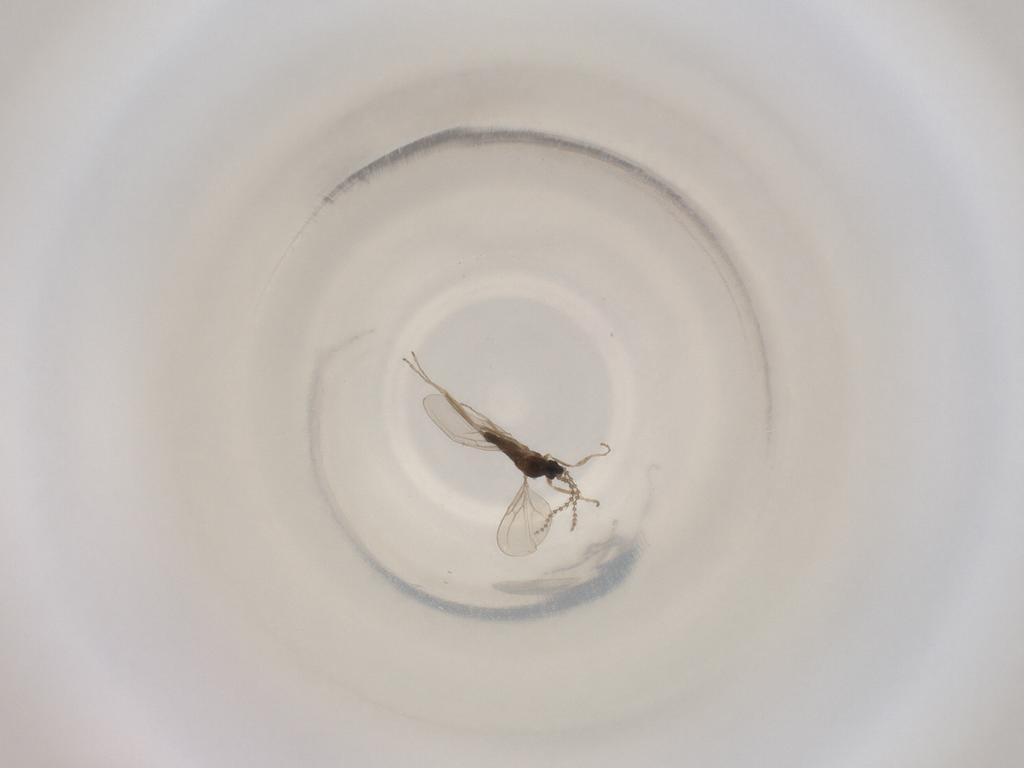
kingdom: Animalia
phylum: Arthropoda
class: Insecta
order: Diptera
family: Cecidomyiidae
